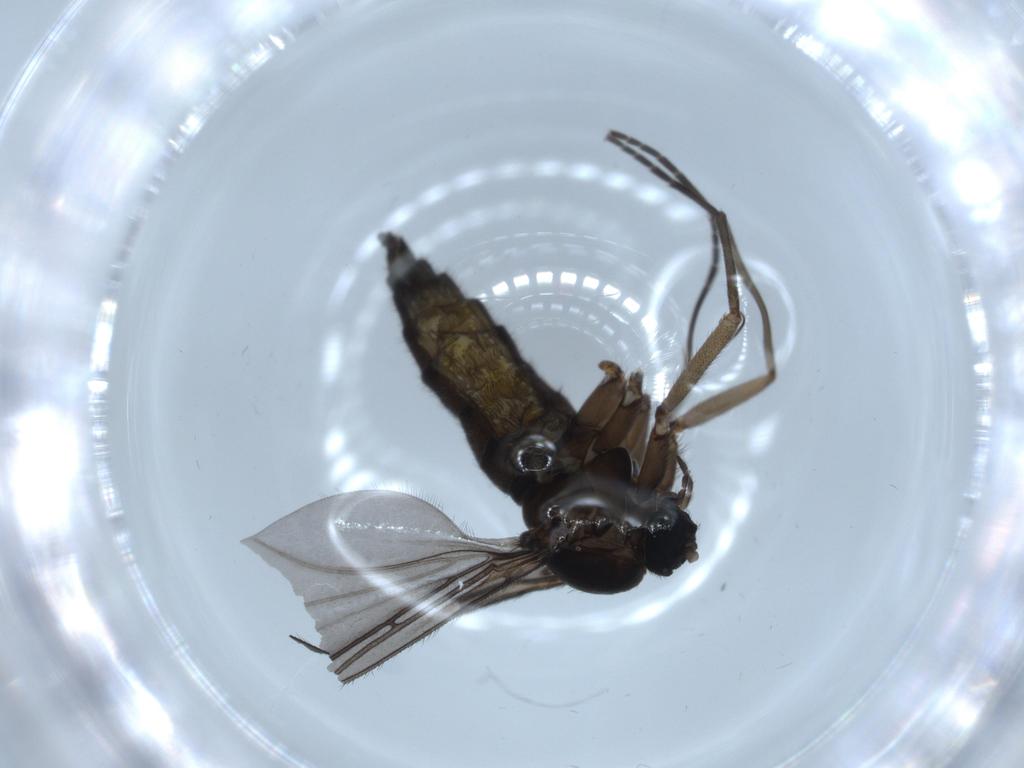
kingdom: Animalia
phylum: Arthropoda
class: Insecta
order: Diptera
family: Sciaridae
